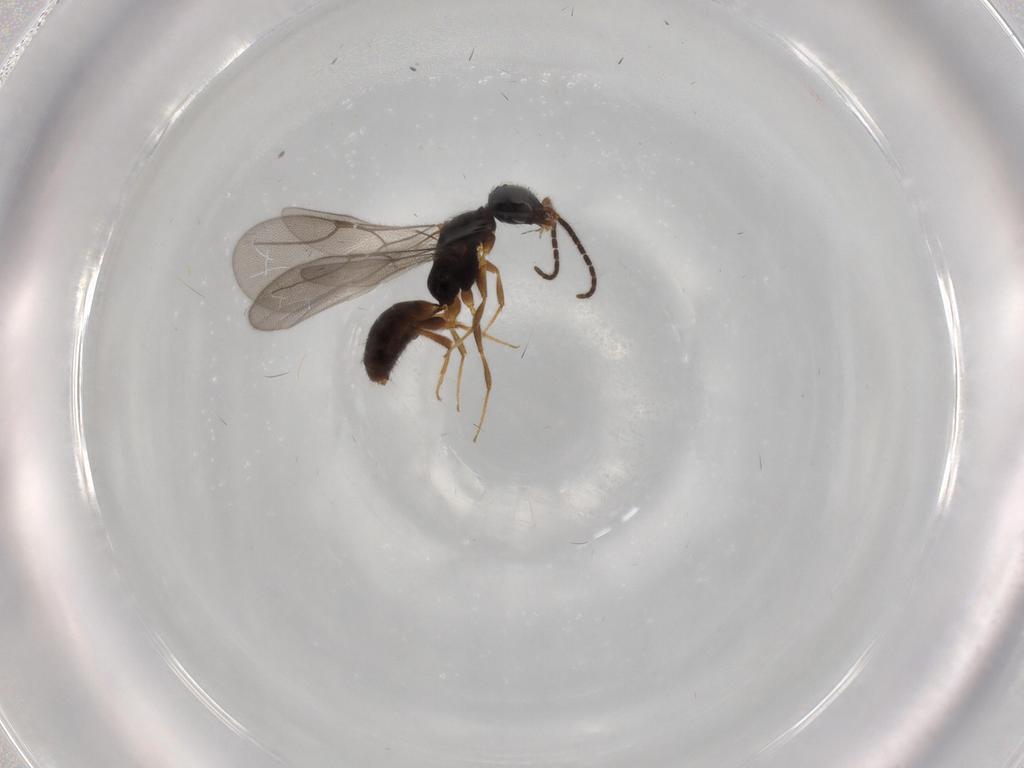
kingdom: Animalia
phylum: Arthropoda
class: Insecta
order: Hymenoptera
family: Bethylidae
